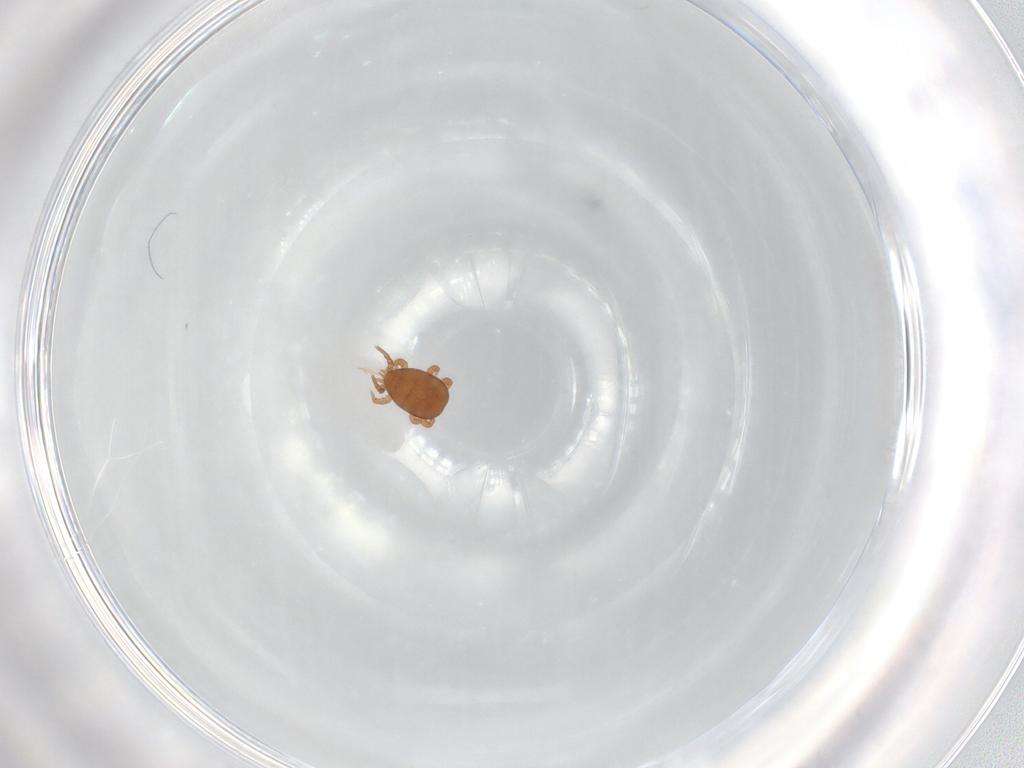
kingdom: Animalia
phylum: Arthropoda
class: Arachnida
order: Mesostigmata
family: Eviphididae
